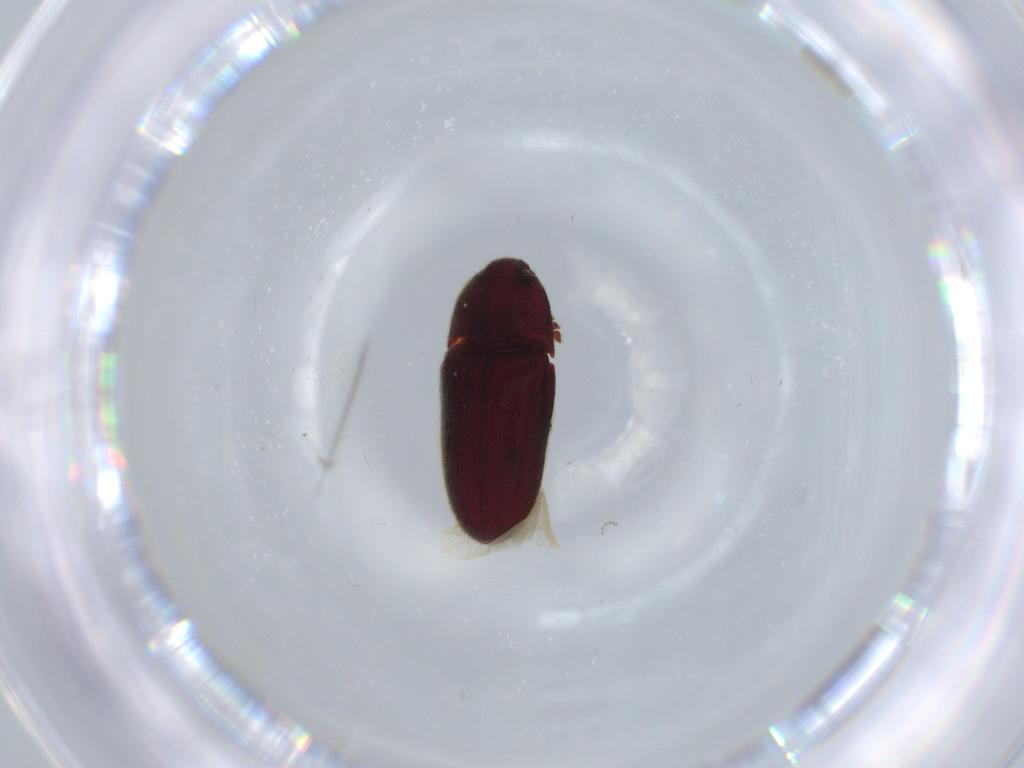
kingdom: Animalia
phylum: Arthropoda
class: Insecta
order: Coleoptera
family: Throscidae
